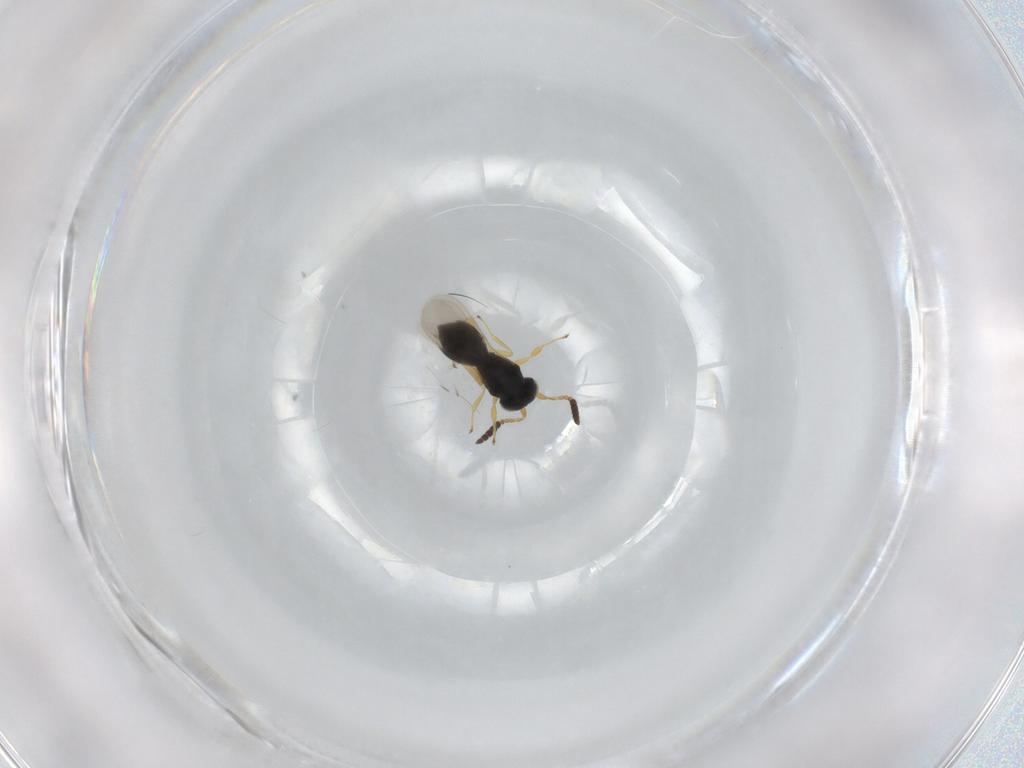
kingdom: Animalia
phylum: Arthropoda
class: Insecta
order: Hymenoptera
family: Scelionidae
